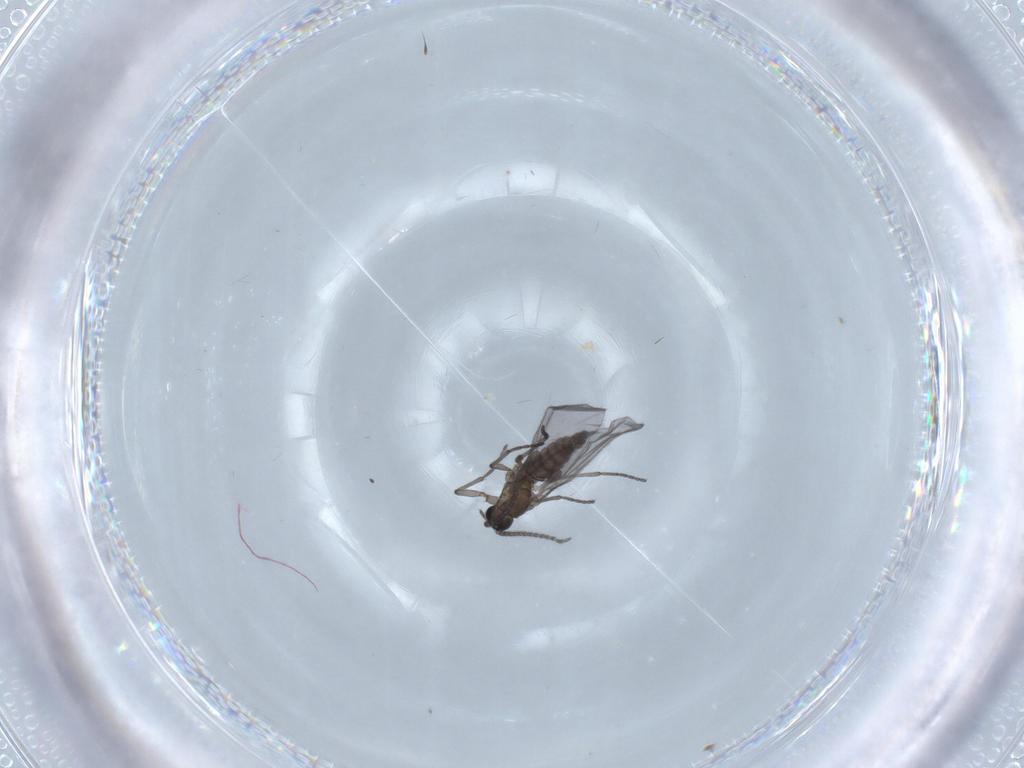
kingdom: Animalia
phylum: Arthropoda
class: Insecta
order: Diptera
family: Sciaridae
